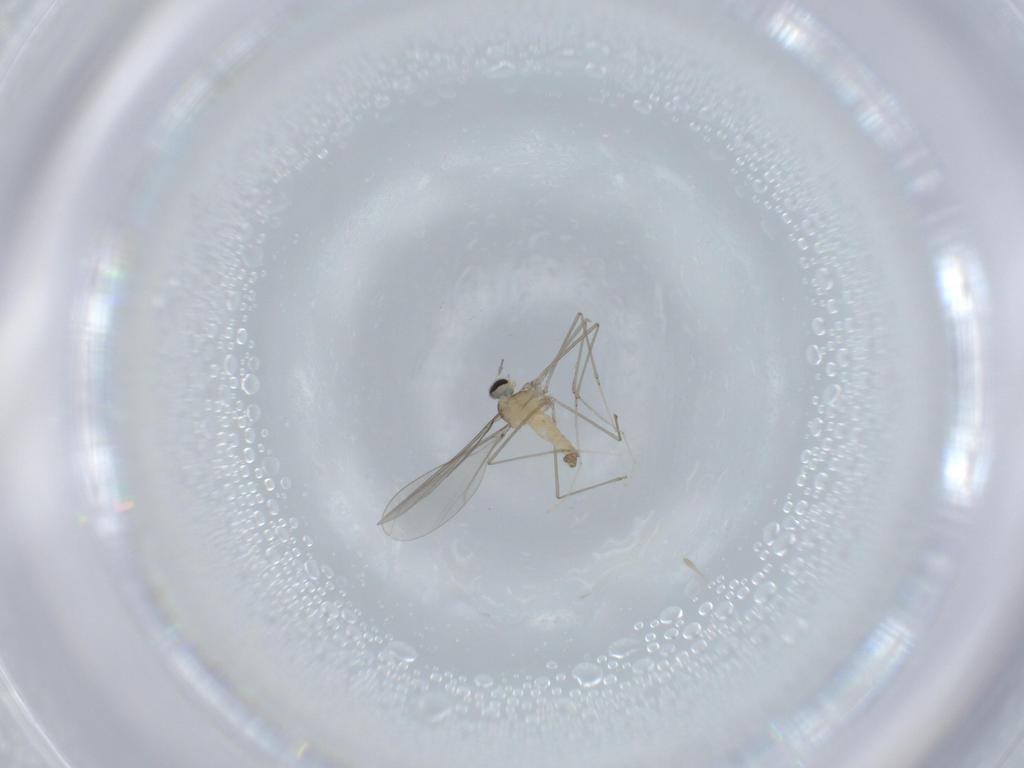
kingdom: Animalia
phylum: Arthropoda
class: Insecta
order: Diptera
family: Cecidomyiidae
